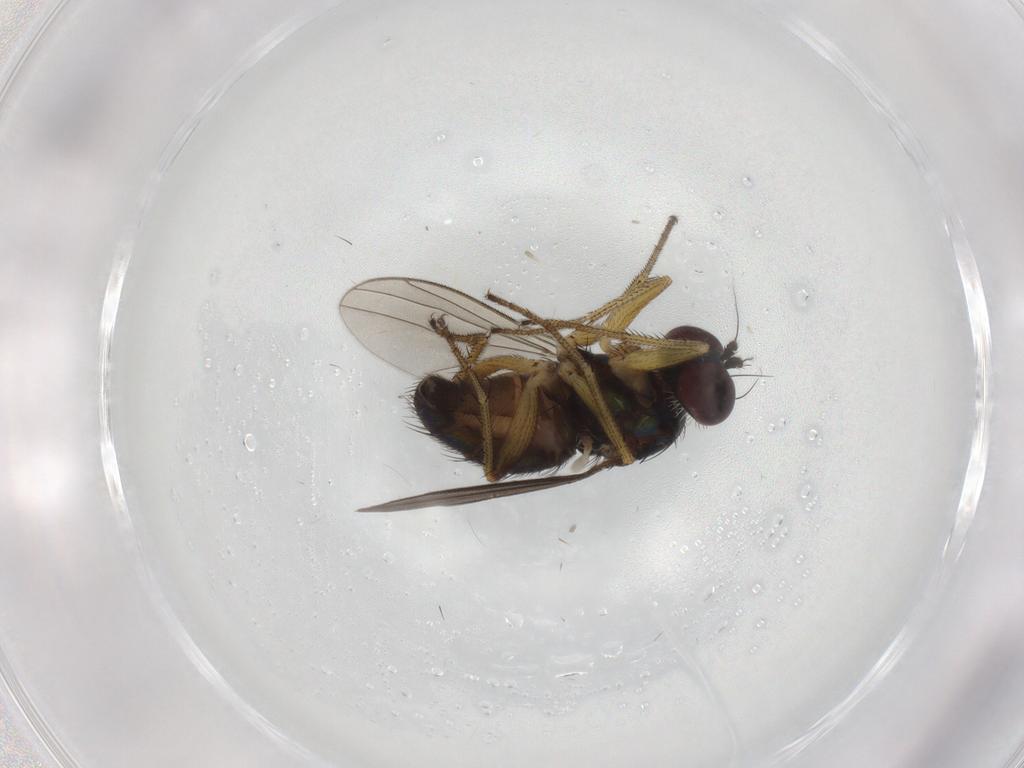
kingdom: Animalia
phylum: Arthropoda
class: Insecta
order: Diptera
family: Dolichopodidae
